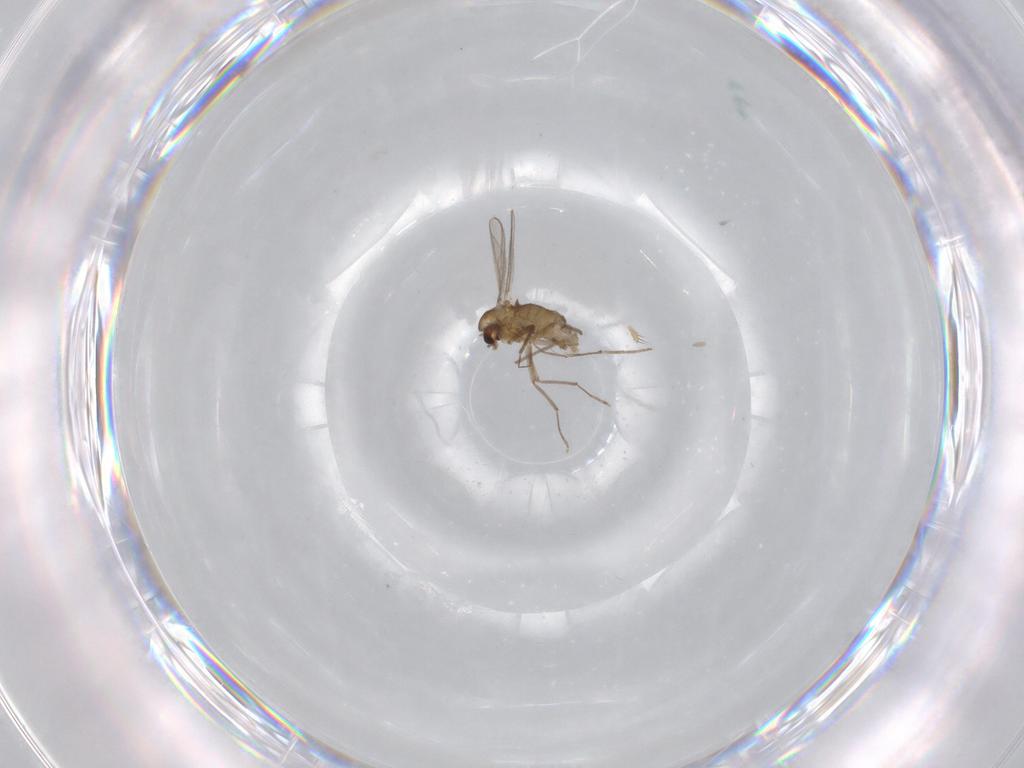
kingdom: Animalia
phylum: Arthropoda
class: Insecta
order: Diptera
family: Chironomidae
